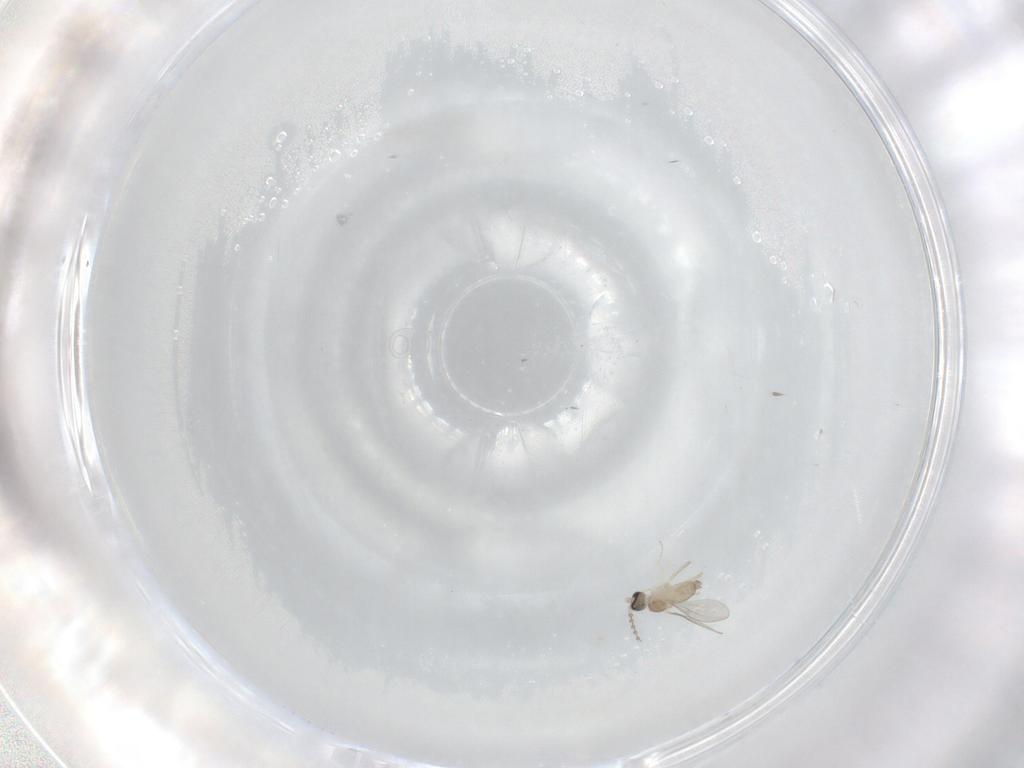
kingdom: Animalia
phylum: Arthropoda
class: Insecta
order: Diptera
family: Cecidomyiidae
